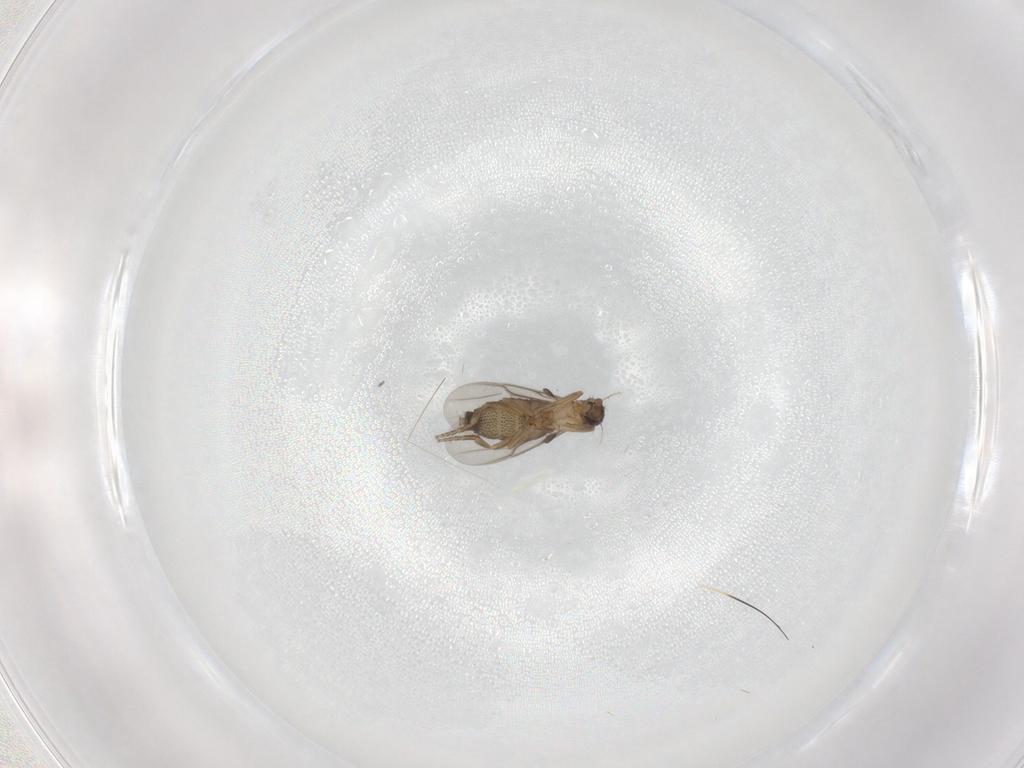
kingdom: Animalia
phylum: Arthropoda
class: Insecta
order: Diptera
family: Phoridae
